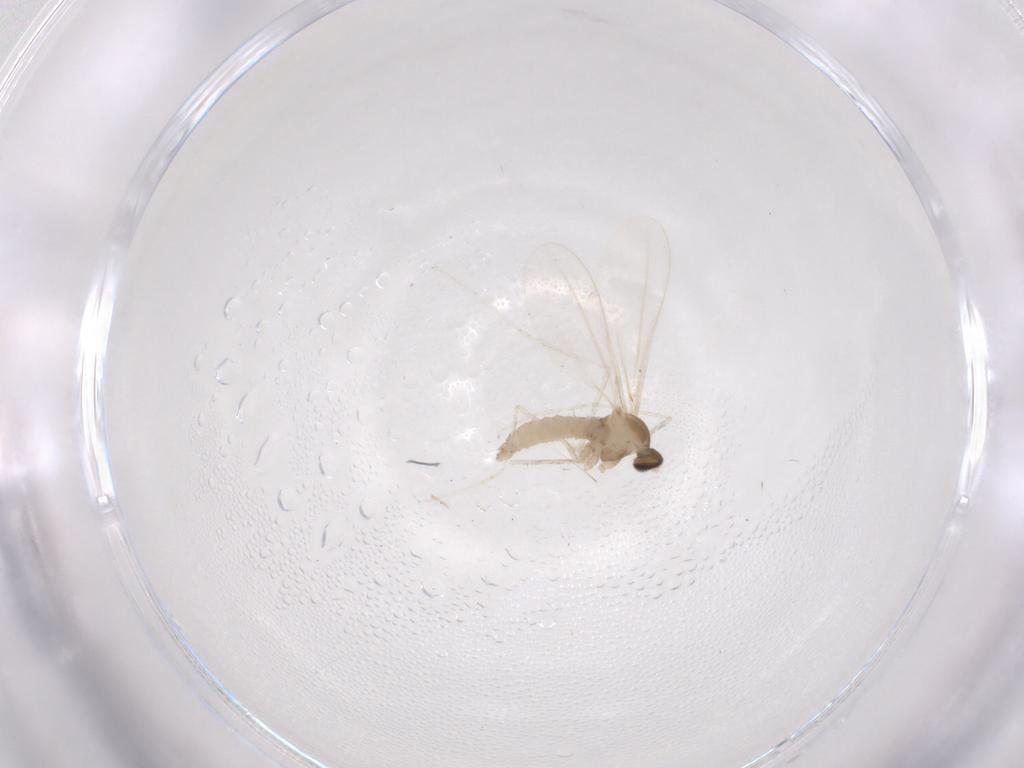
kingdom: Animalia
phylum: Arthropoda
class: Insecta
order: Diptera
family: Cecidomyiidae
